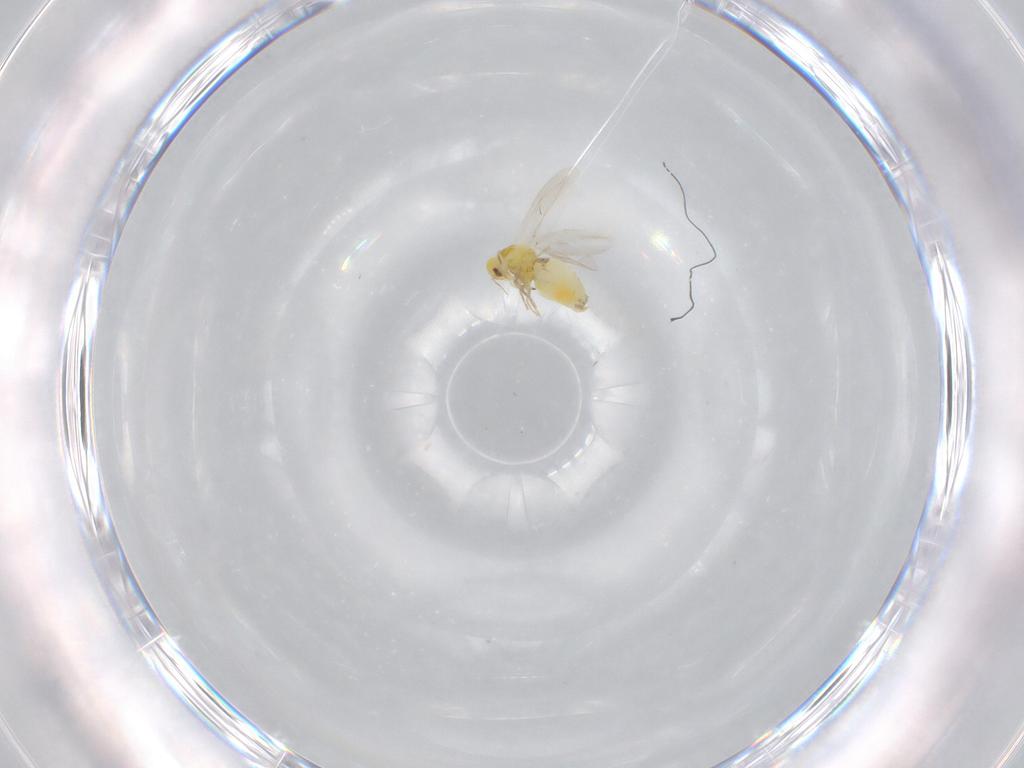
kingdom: Animalia
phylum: Arthropoda
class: Insecta
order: Hemiptera
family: Aleyrodidae
